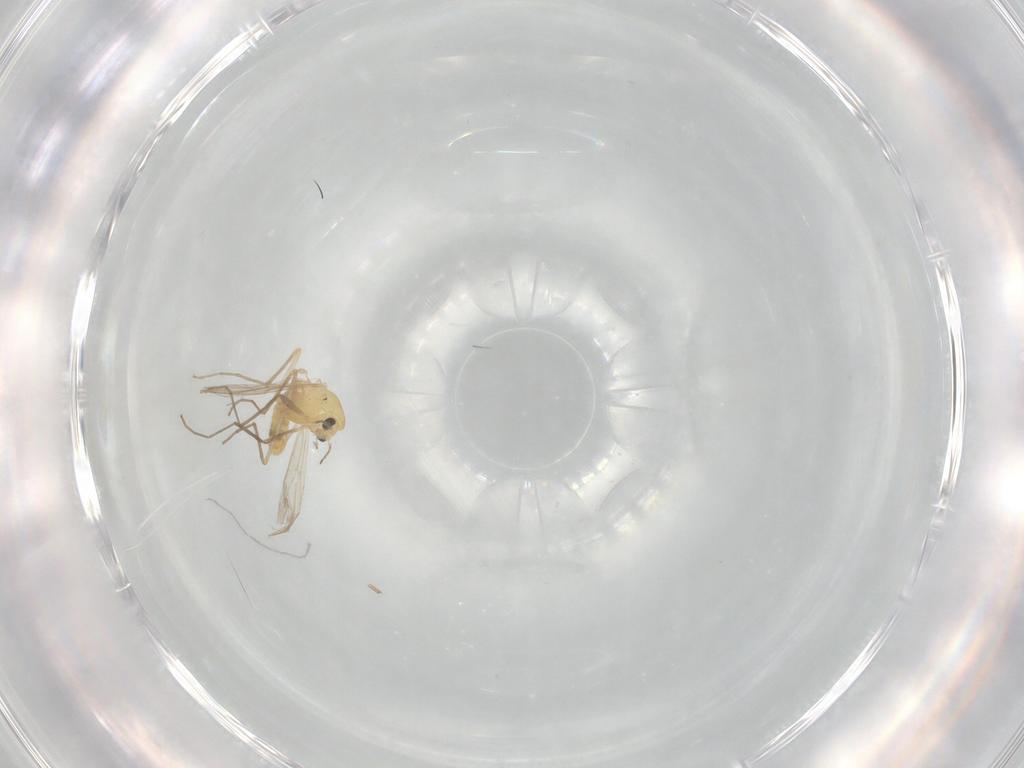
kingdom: Animalia
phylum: Arthropoda
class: Insecta
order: Diptera
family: Chironomidae
